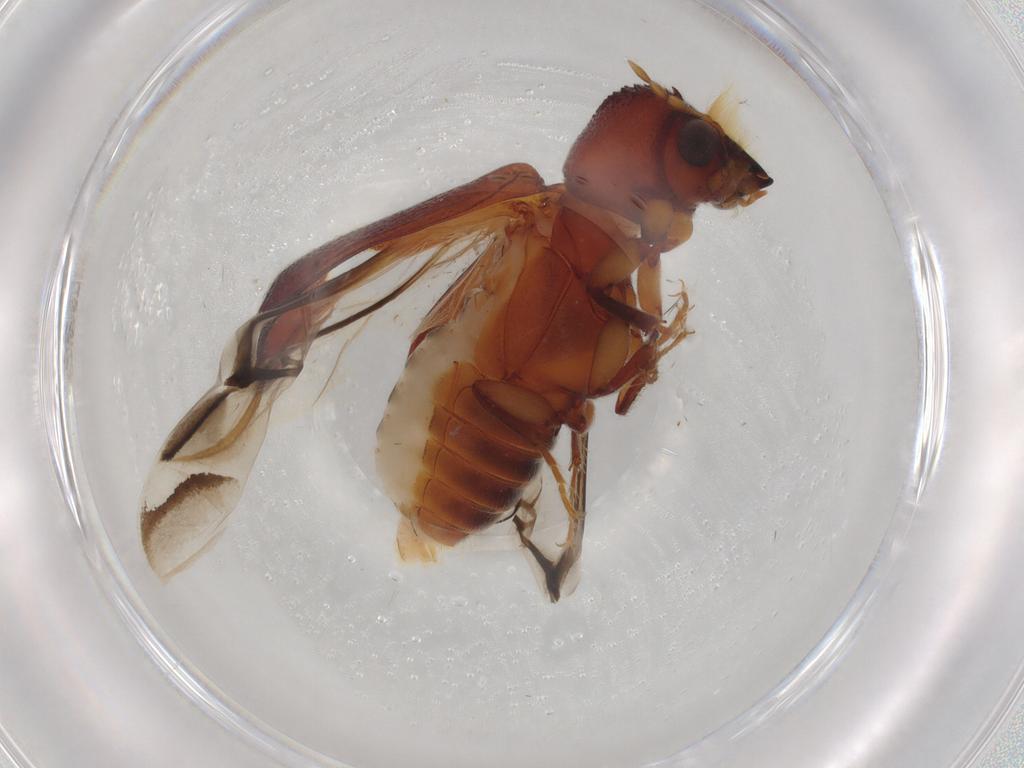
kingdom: Animalia
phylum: Arthropoda
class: Insecta
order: Coleoptera
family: Bostrichidae
